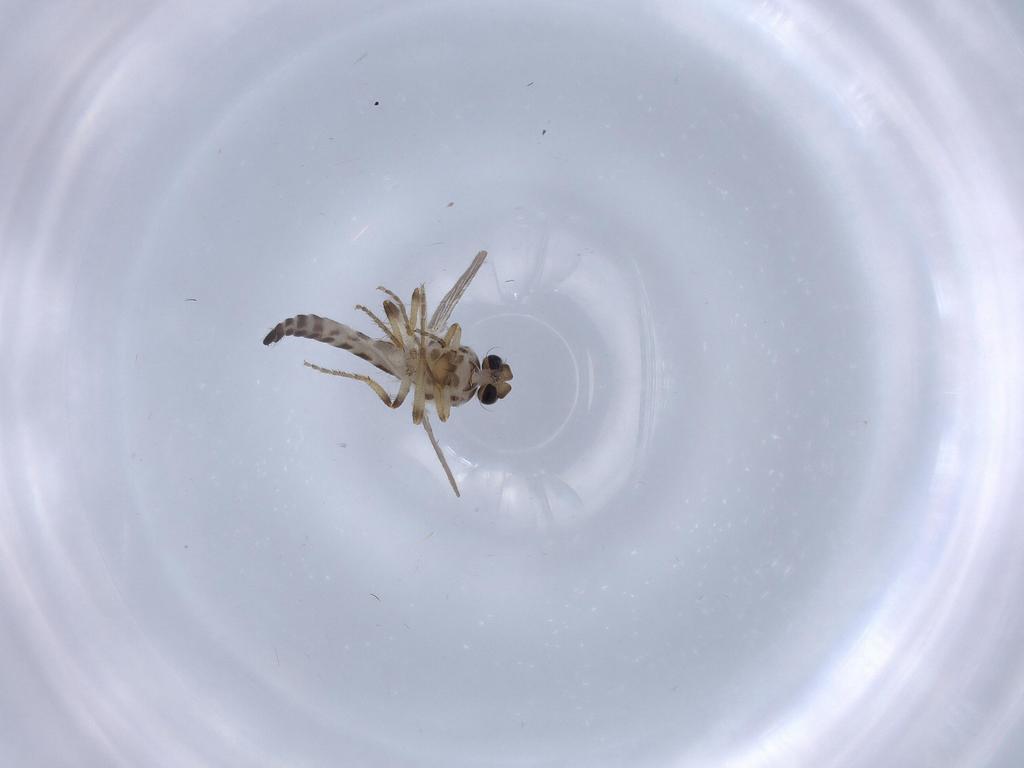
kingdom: Animalia
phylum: Arthropoda
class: Insecta
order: Diptera
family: Ceratopogonidae
